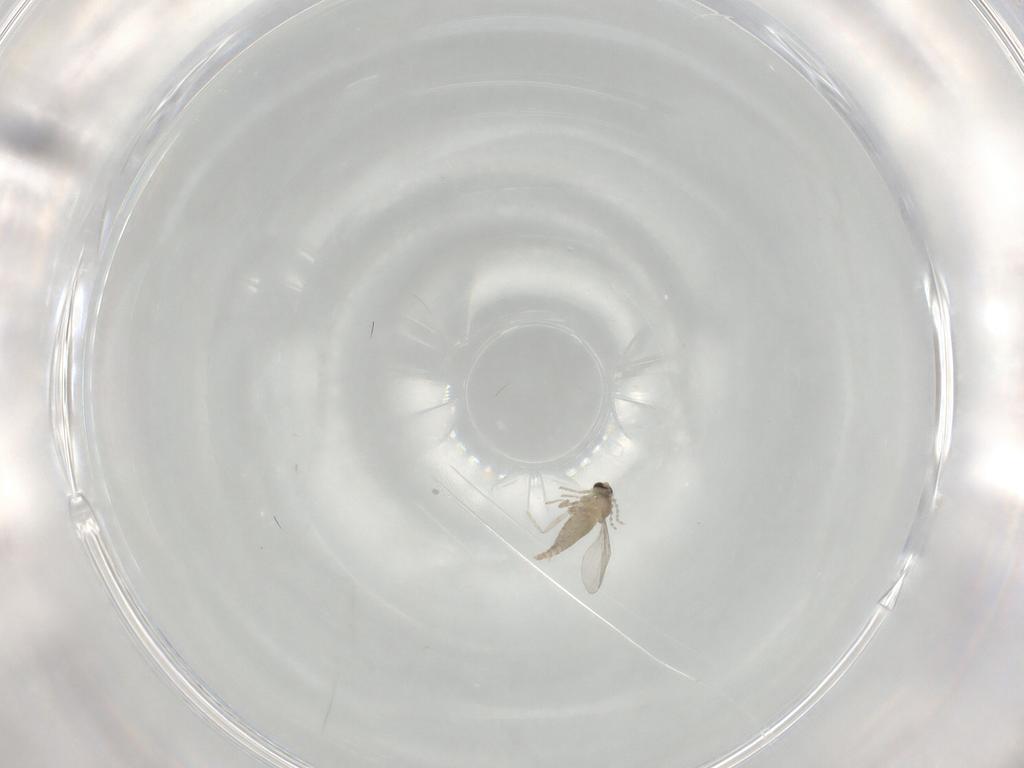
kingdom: Animalia
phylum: Arthropoda
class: Insecta
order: Diptera
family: Cecidomyiidae
